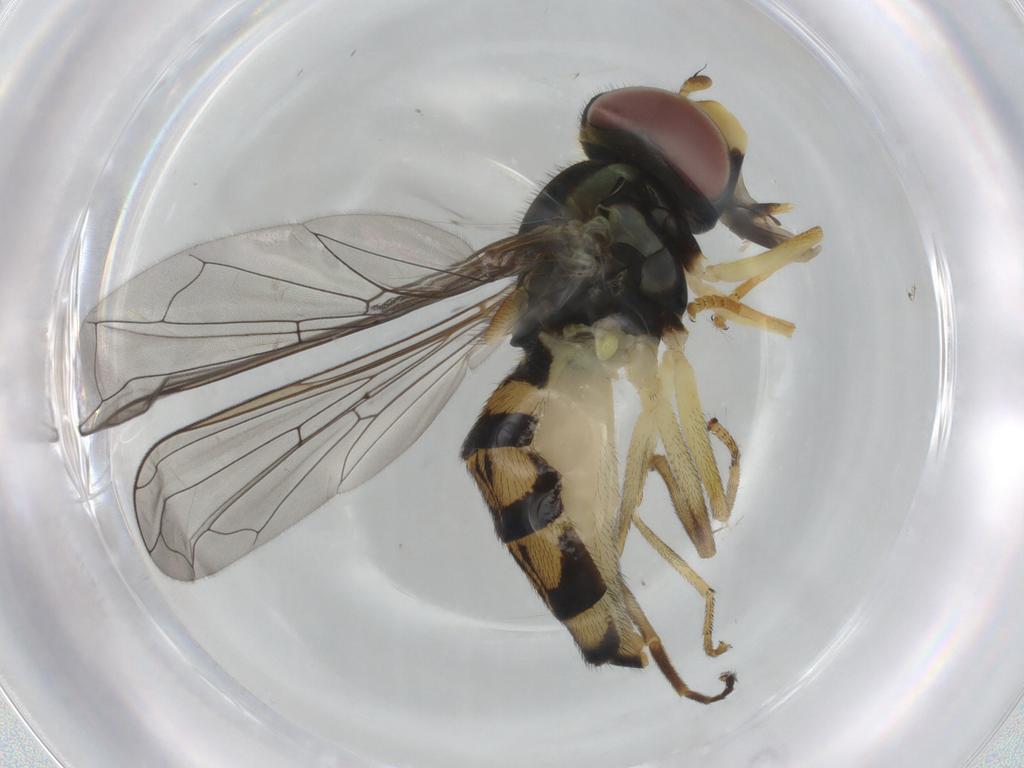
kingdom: Animalia
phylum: Arthropoda
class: Insecta
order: Diptera
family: Syrphidae
